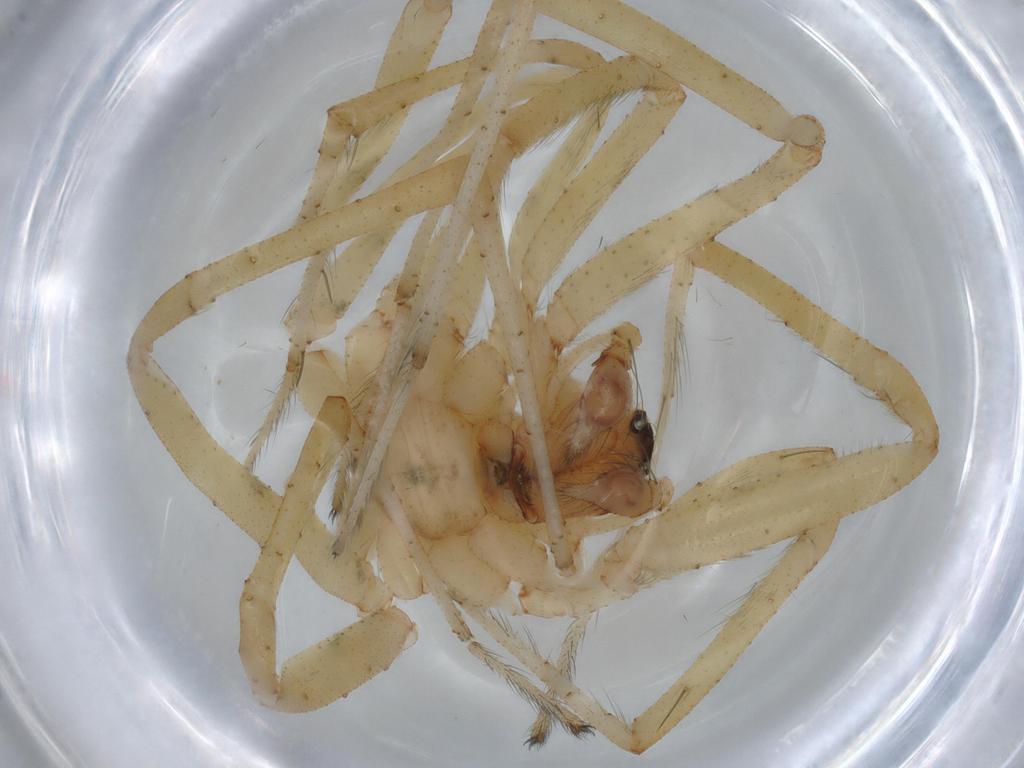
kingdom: Animalia
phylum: Arthropoda
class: Arachnida
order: Araneae
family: Agelenidae
